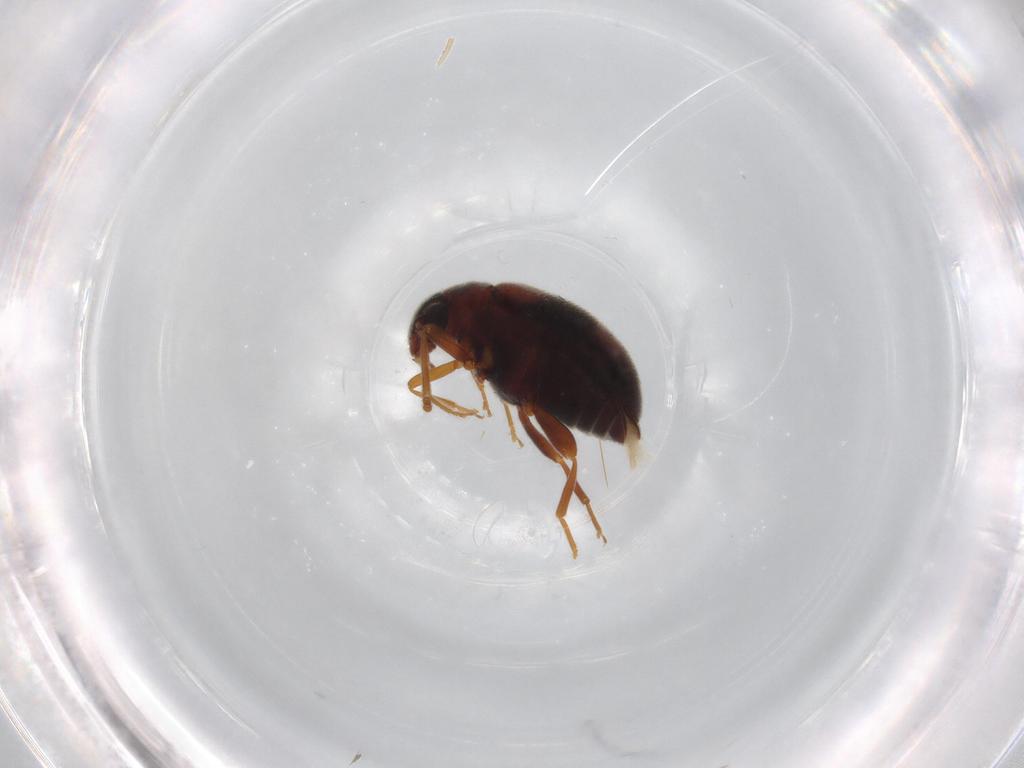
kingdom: Animalia
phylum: Arthropoda
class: Insecta
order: Coleoptera
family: Aderidae
